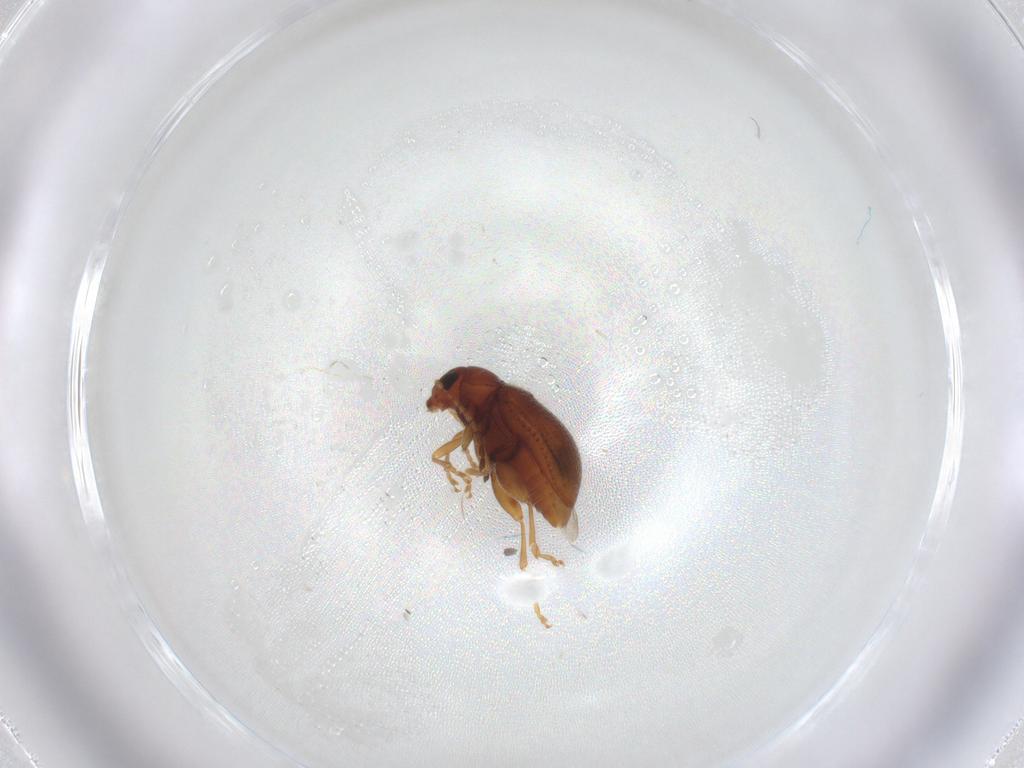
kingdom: Animalia
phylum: Arthropoda
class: Insecta
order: Coleoptera
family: Chrysomelidae
